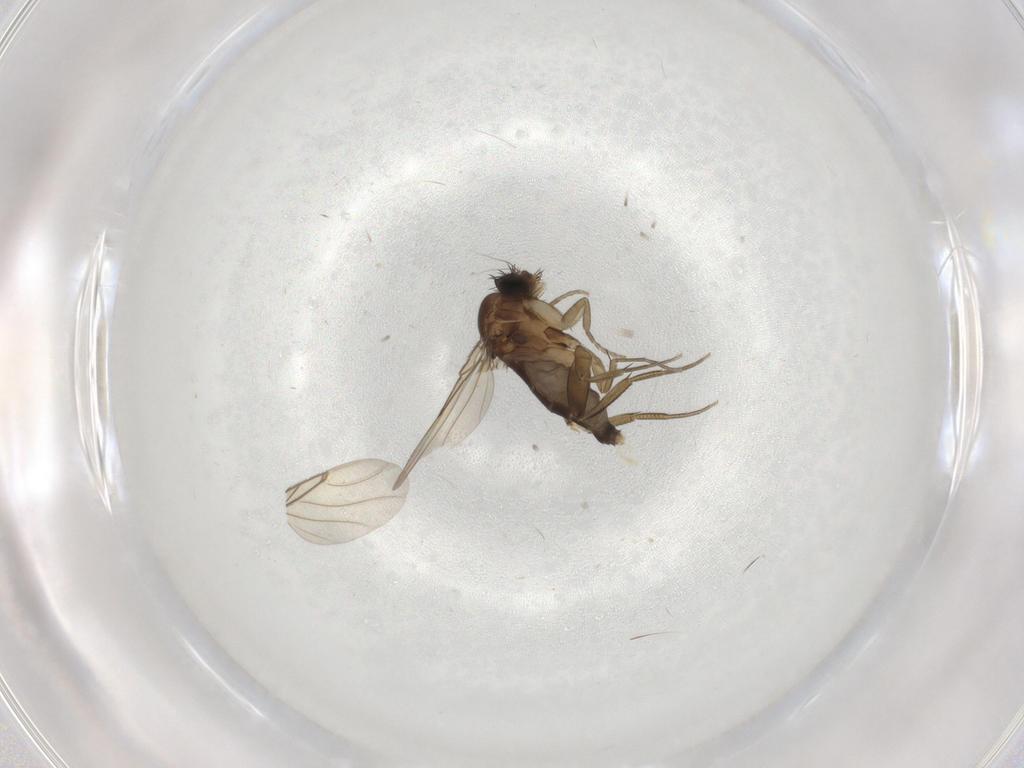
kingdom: Animalia
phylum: Arthropoda
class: Insecta
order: Diptera
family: Phoridae
